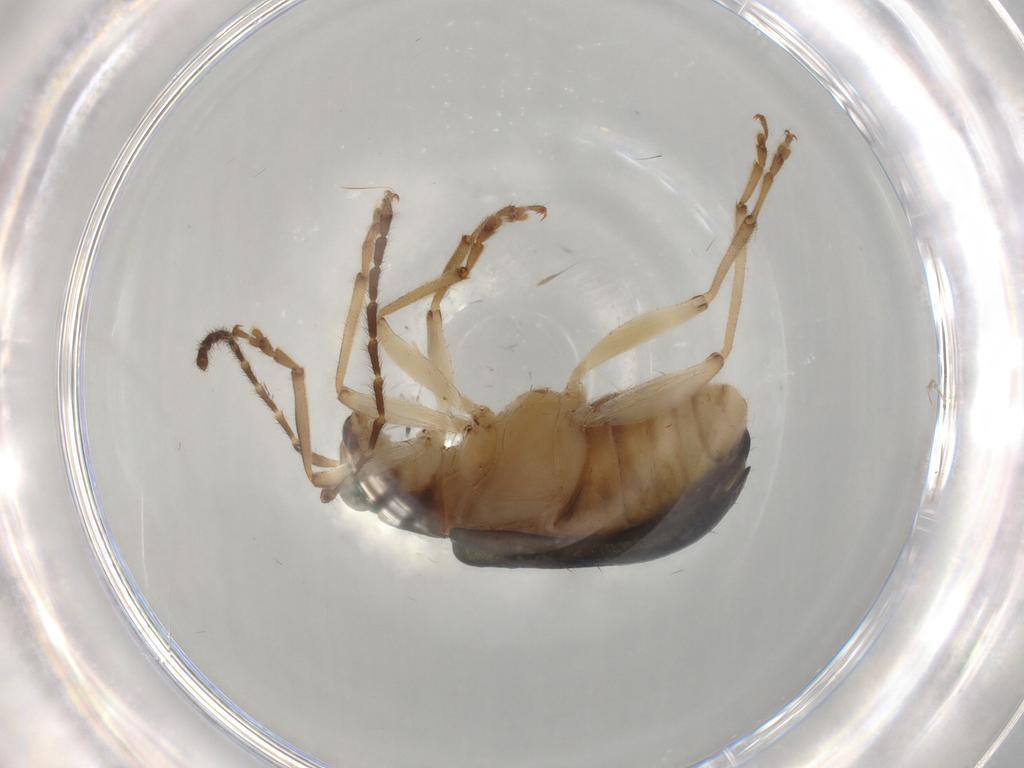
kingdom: Animalia
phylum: Arthropoda
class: Insecta
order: Coleoptera
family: Chrysomelidae
